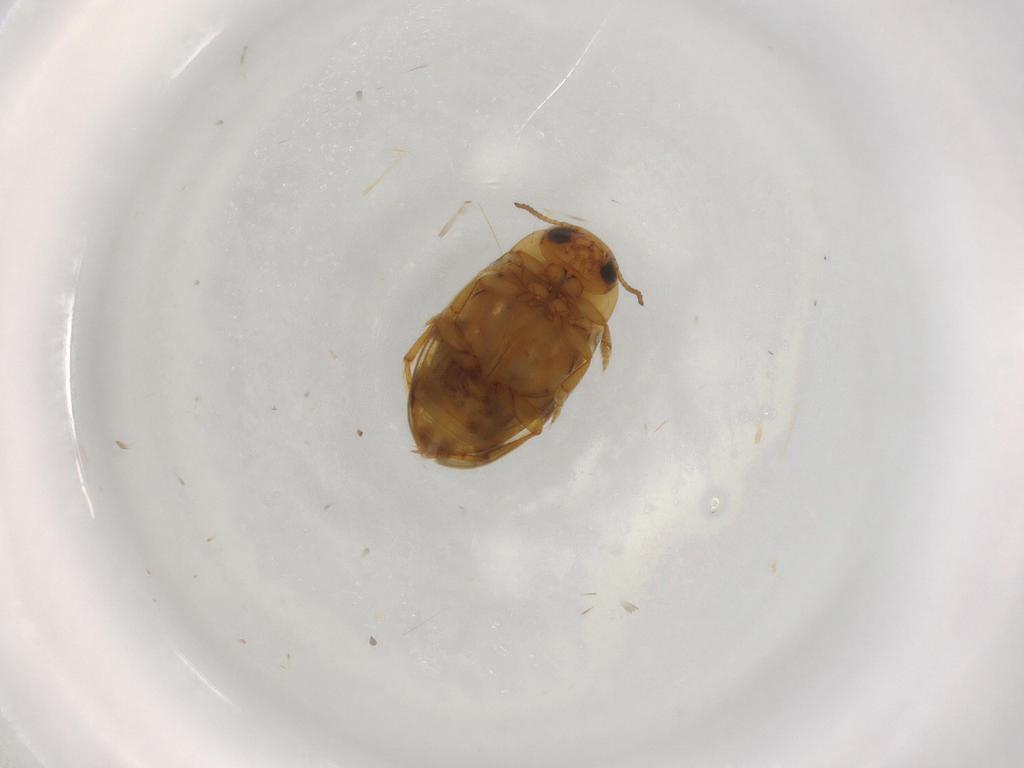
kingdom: Animalia
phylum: Arthropoda
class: Insecta
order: Coleoptera
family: Dytiscidae
